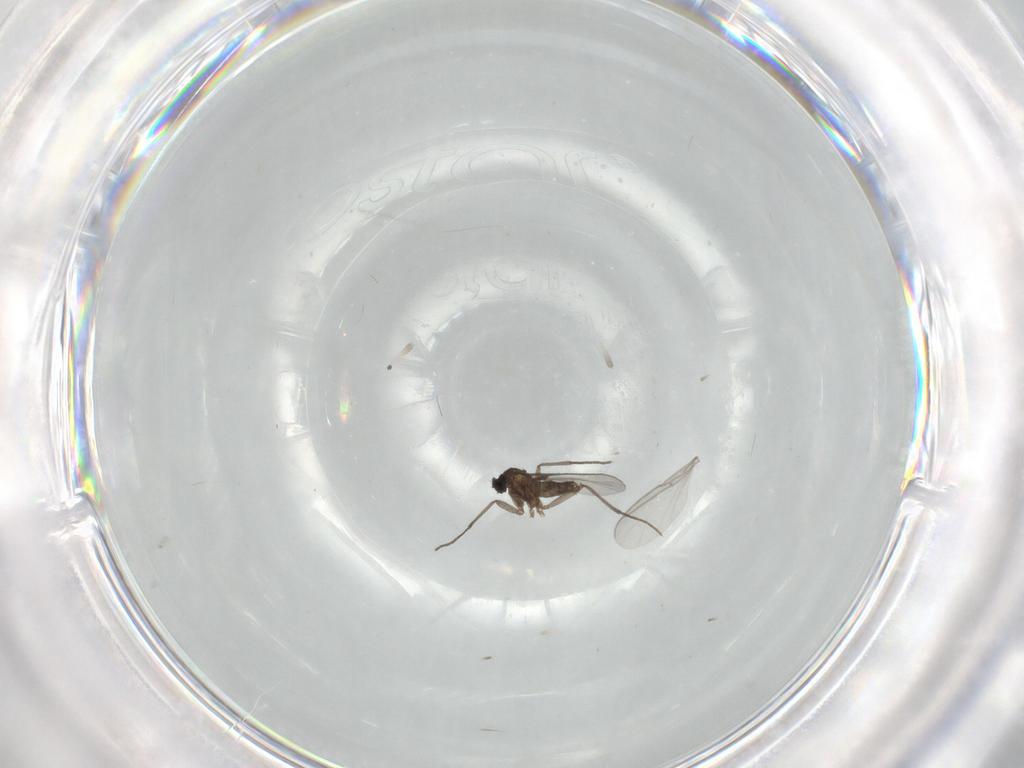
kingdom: Animalia
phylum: Arthropoda
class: Insecta
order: Diptera
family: Sciaridae
